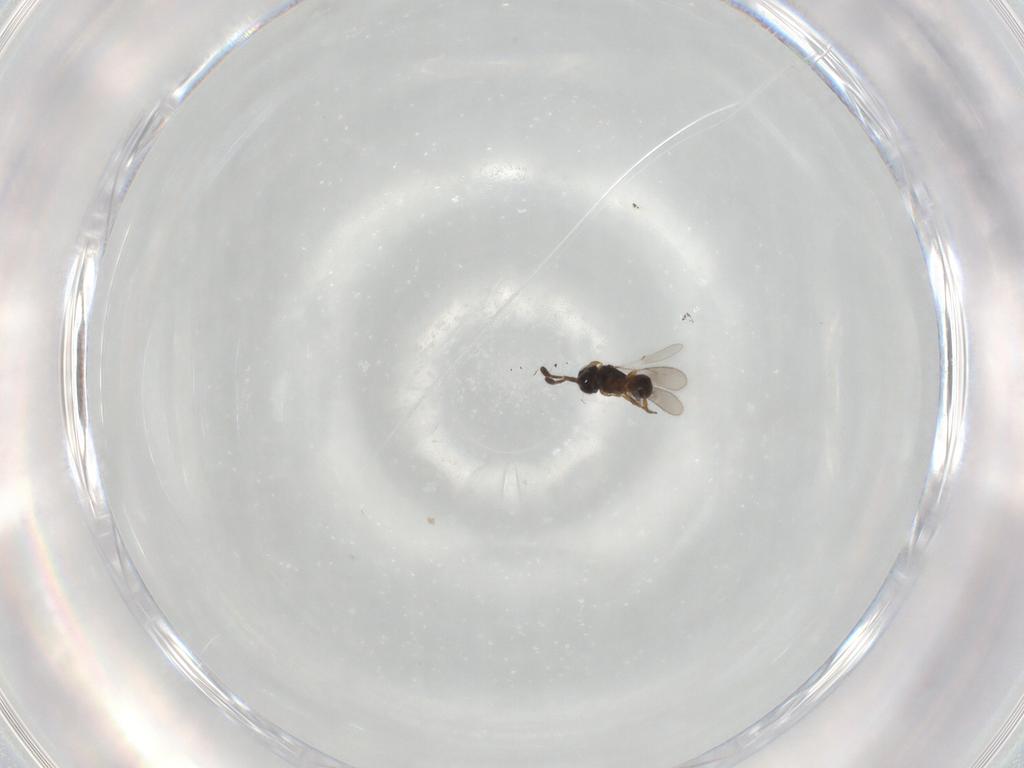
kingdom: Animalia
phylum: Arthropoda
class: Insecta
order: Hymenoptera
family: Scelionidae
